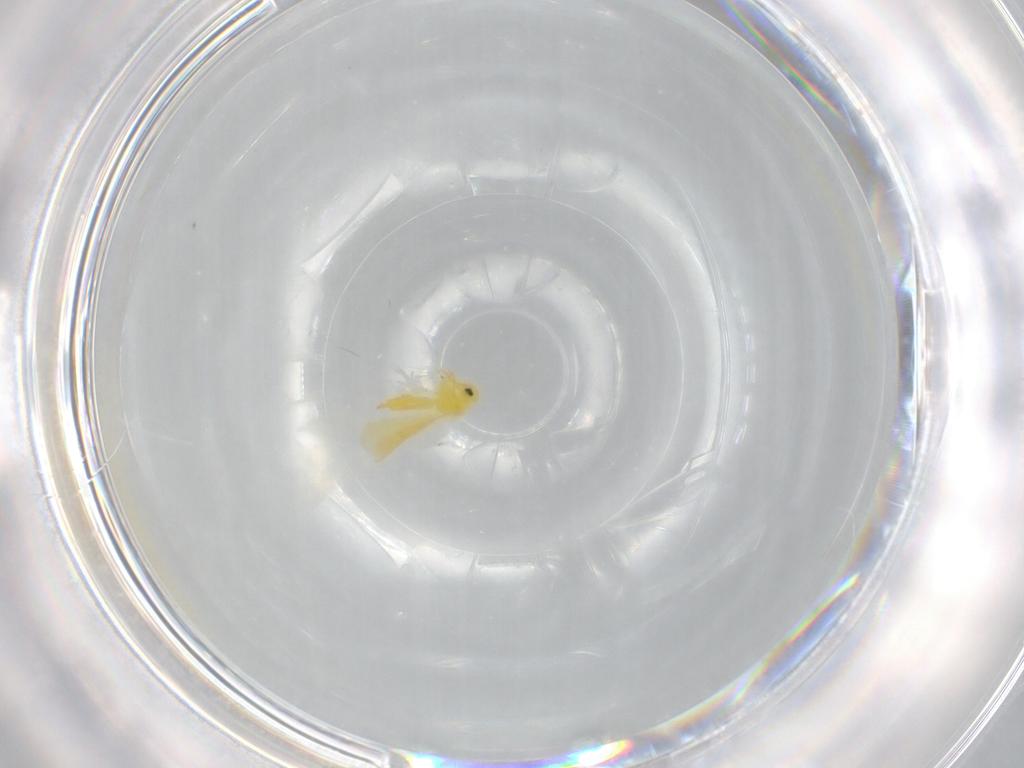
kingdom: Animalia
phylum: Arthropoda
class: Insecta
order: Hemiptera
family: Aleyrodidae
